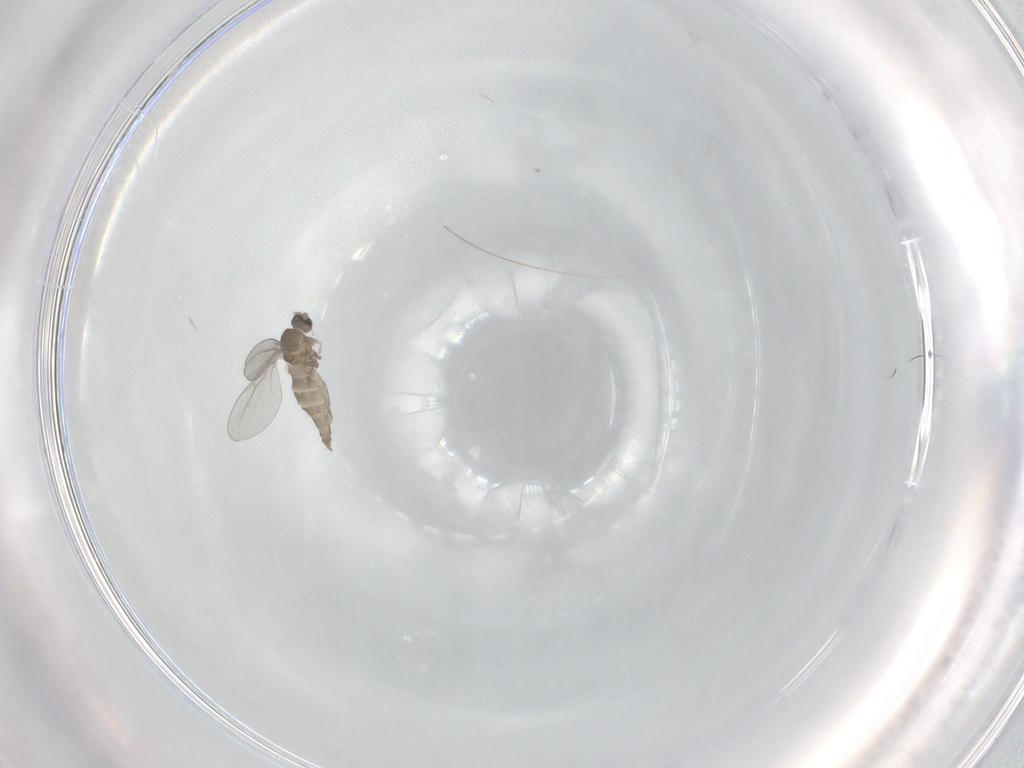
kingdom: Animalia
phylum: Arthropoda
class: Insecta
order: Diptera
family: Cecidomyiidae
